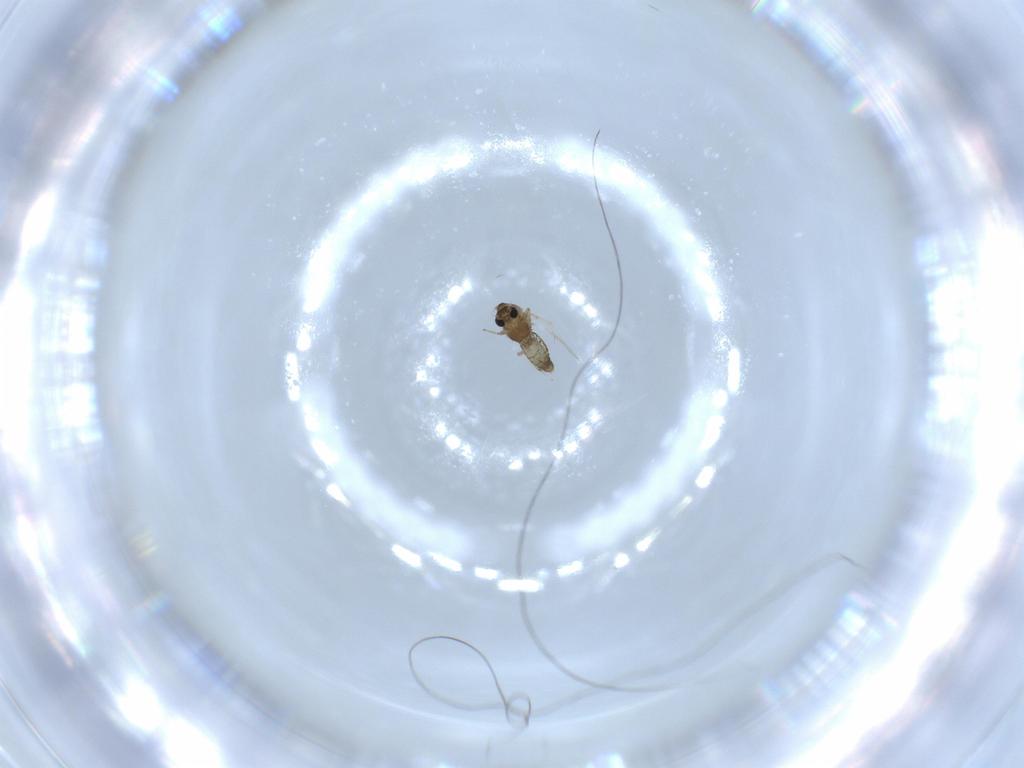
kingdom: Animalia
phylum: Arthropoda
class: Insecta
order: Diptera
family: Chironomidae
